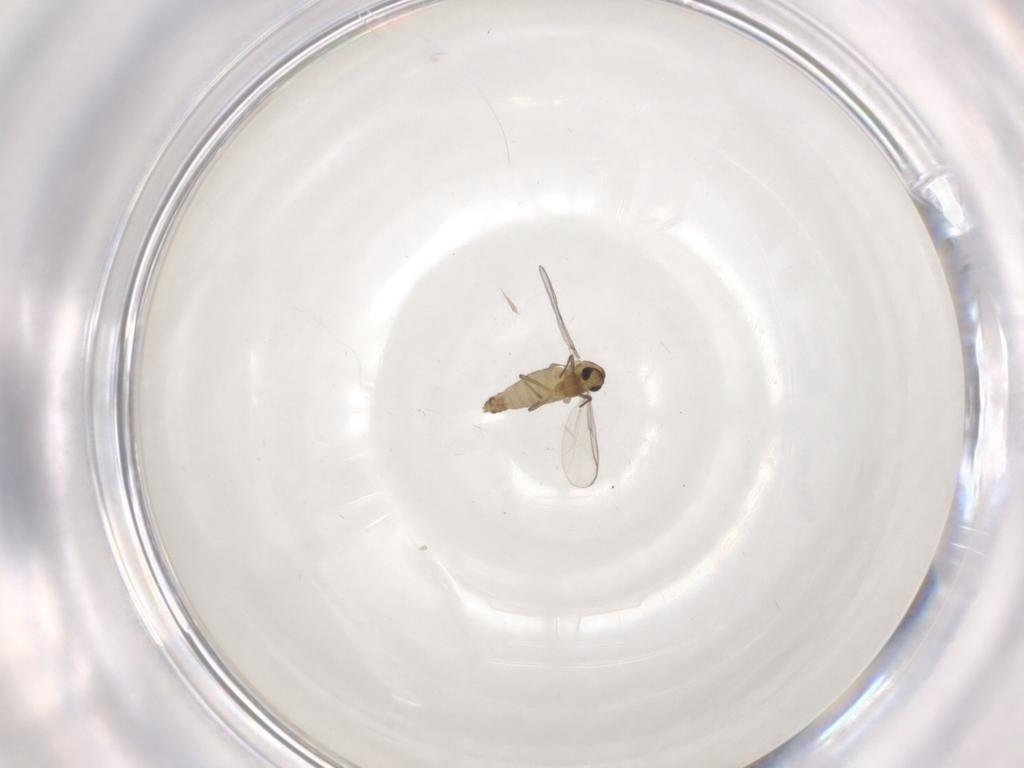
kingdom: Animalia
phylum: Arthropoda
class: Insecta
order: Diptera
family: Chironomidae
